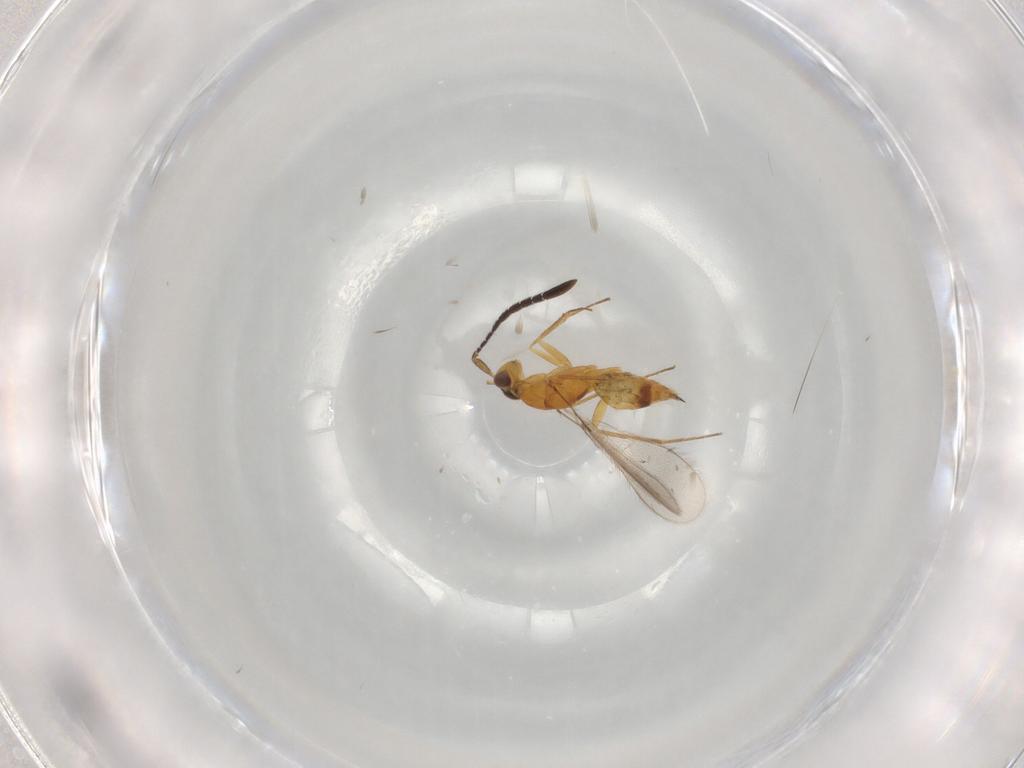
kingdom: Animalia
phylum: Arthropoda
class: Insecta
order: Hymenoptera
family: Mymaridae
